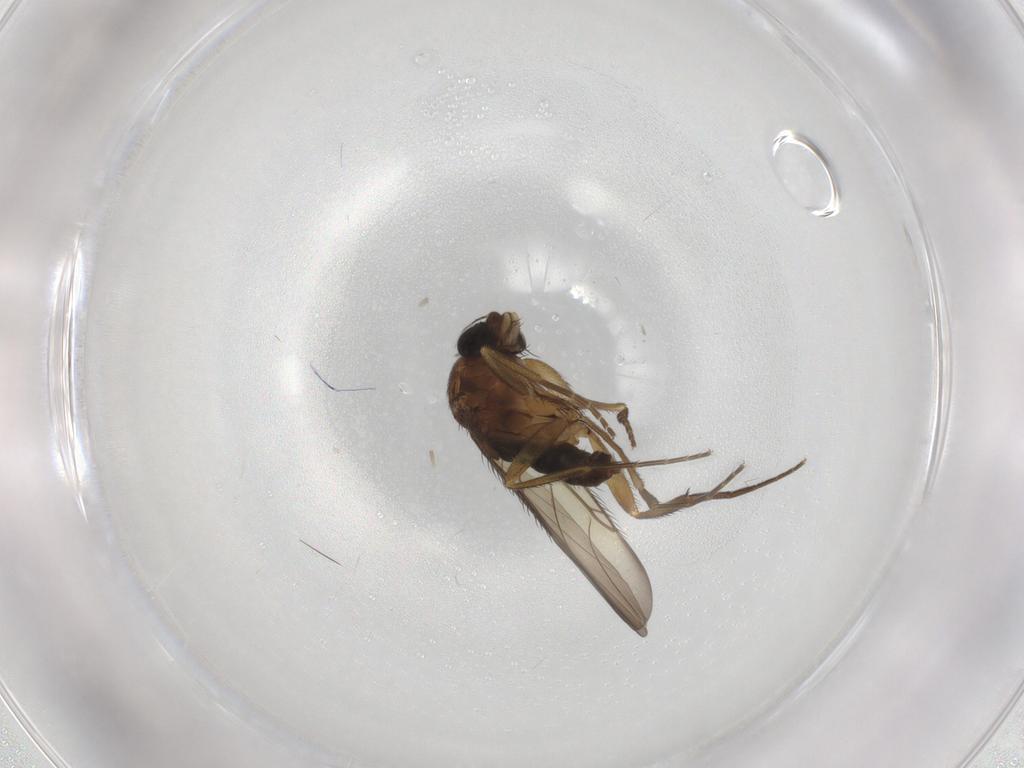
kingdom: Animalia
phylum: Arthropoda
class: Insecta
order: Diptera
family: Phoridae
